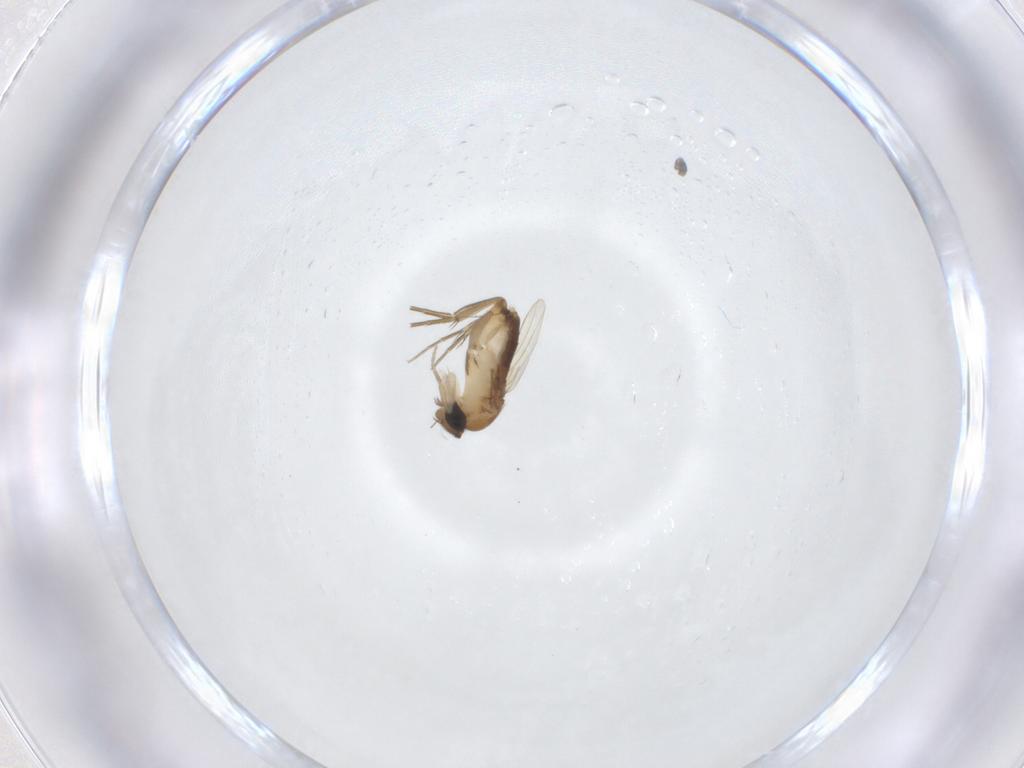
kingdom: Animalia
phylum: Arthropoda
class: Insecta
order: Diptera
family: Phoridae
